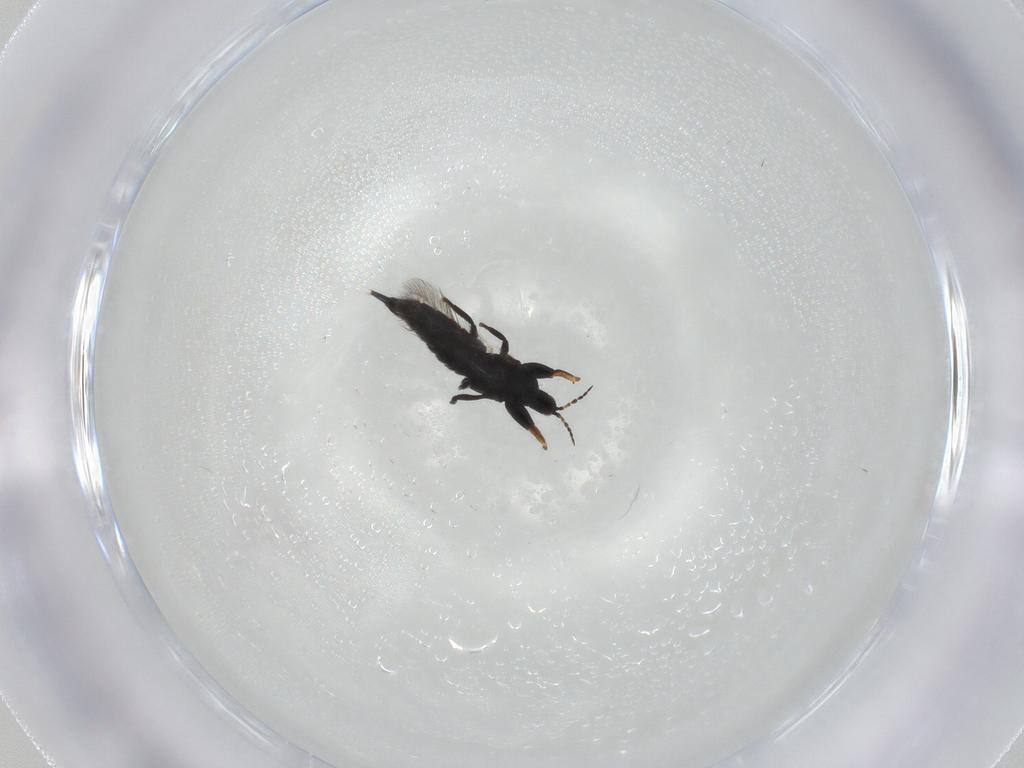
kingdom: Animalia
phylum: Arthropoda
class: Insecta
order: Thysanoptera
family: Phlaeothripidae
